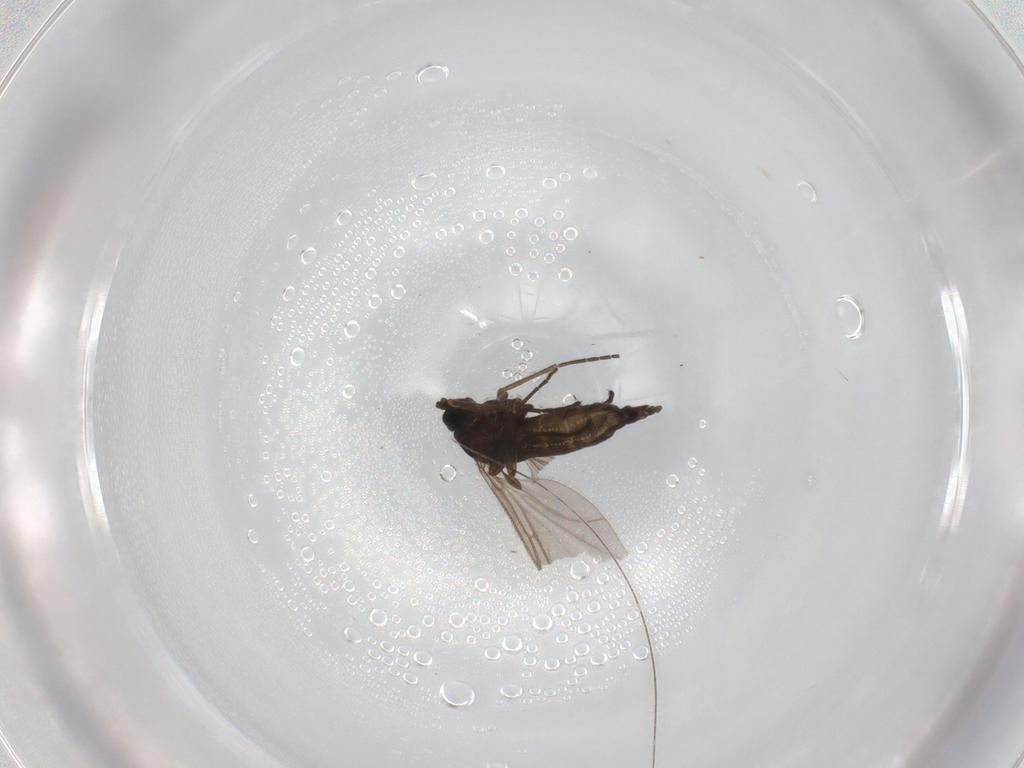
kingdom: Animalia
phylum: Arthropoda
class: Insecta
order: Diptera
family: Sciaridae
